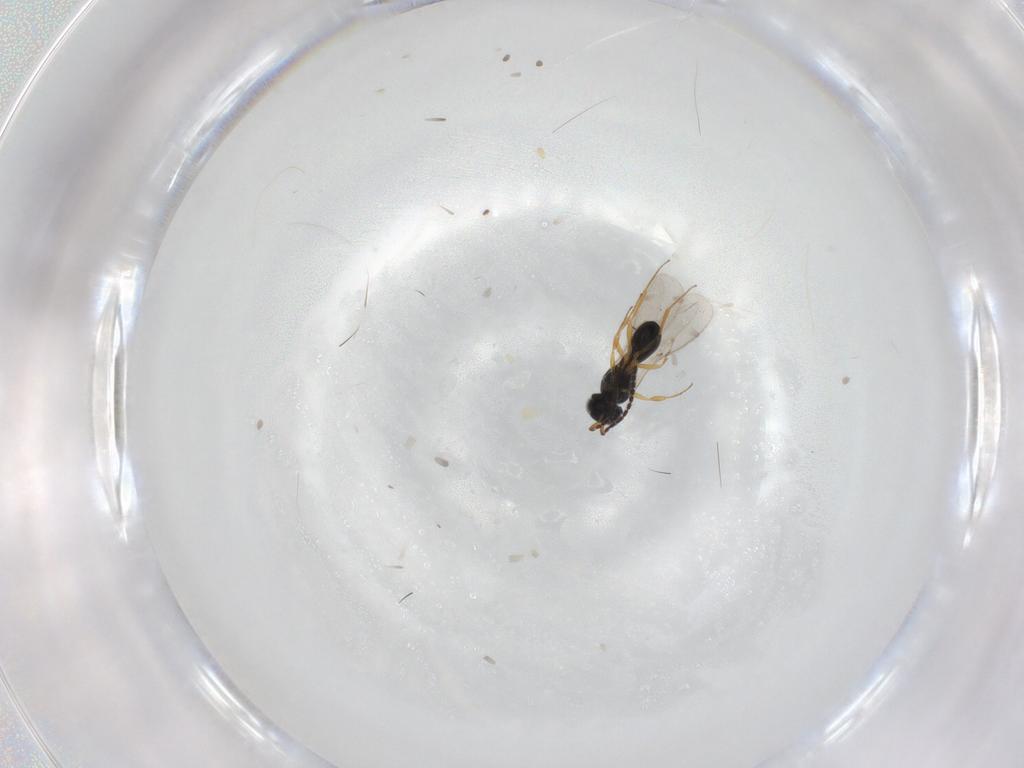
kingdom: Animalia
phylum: Arthropoda
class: Insecta
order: Hymenoptera
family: Scelionidae
